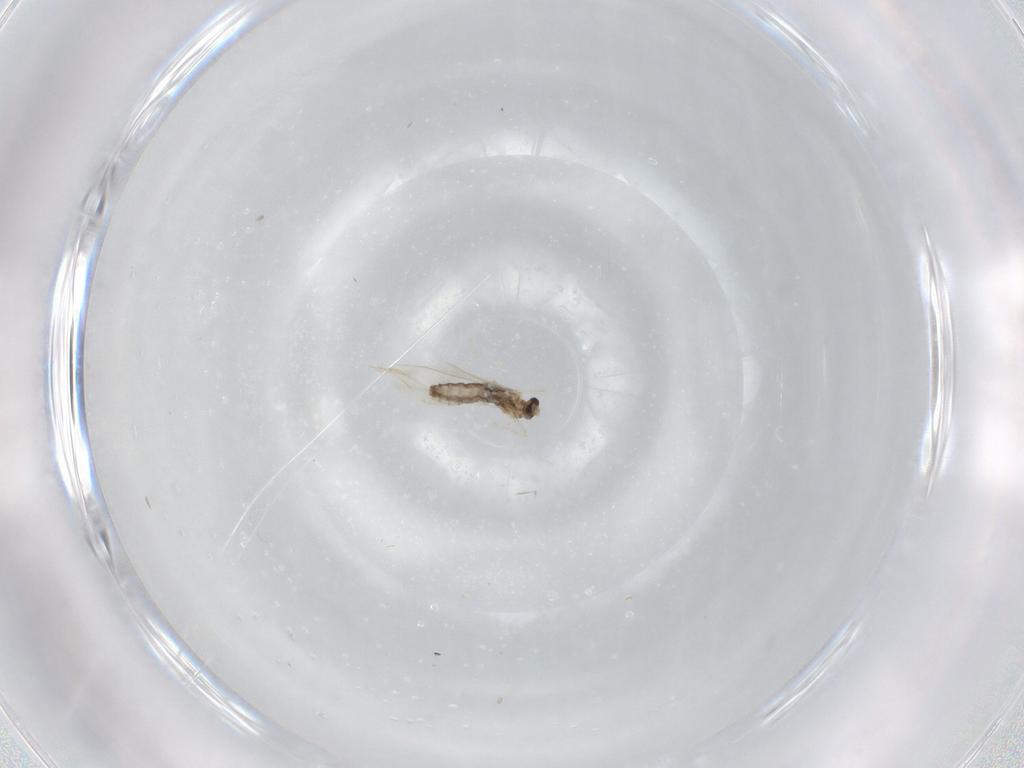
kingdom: Animalia
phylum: Arthropoda
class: Insecta
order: Diptera
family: Cecidomyiidae
